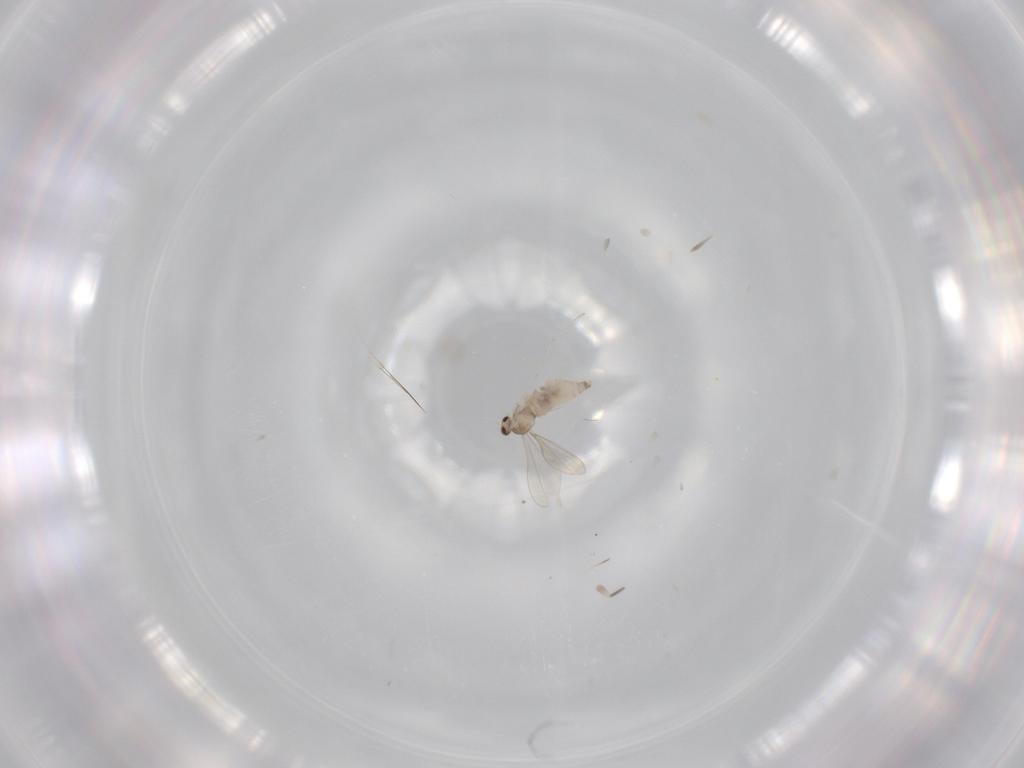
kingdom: Animalia
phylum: Arthropoda
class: Insecta
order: Diptera
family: Cecidomyiidae
